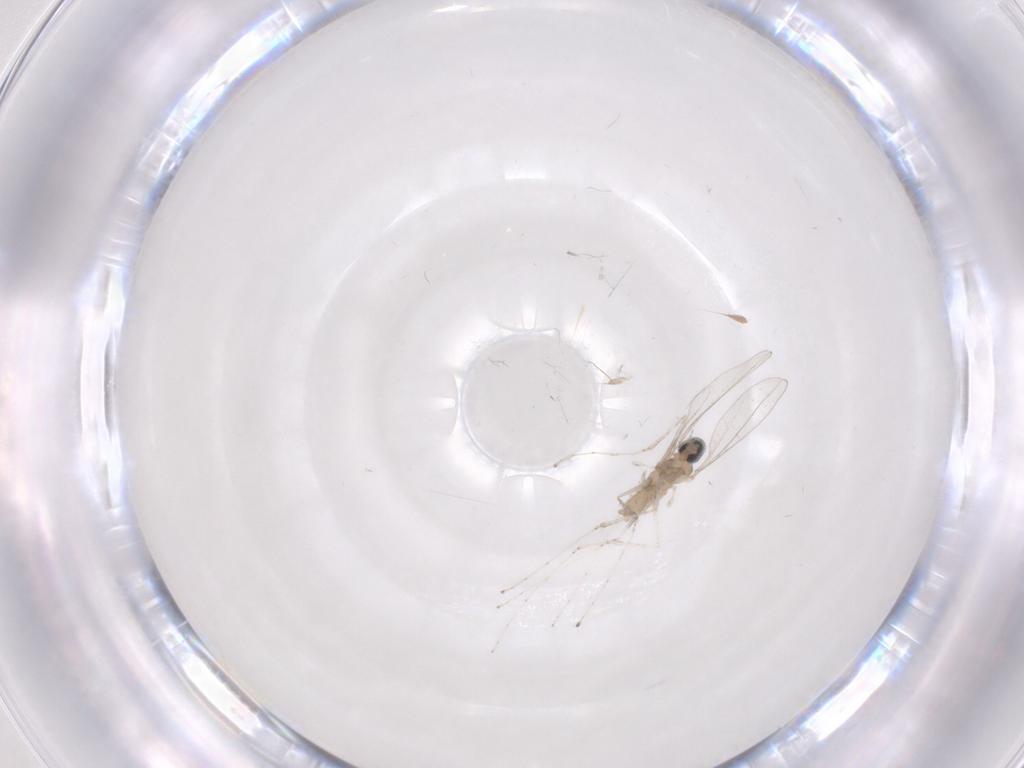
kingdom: Animalia
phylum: Arthropoda
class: Insecta
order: Diptera
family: Cecidomyiidae
